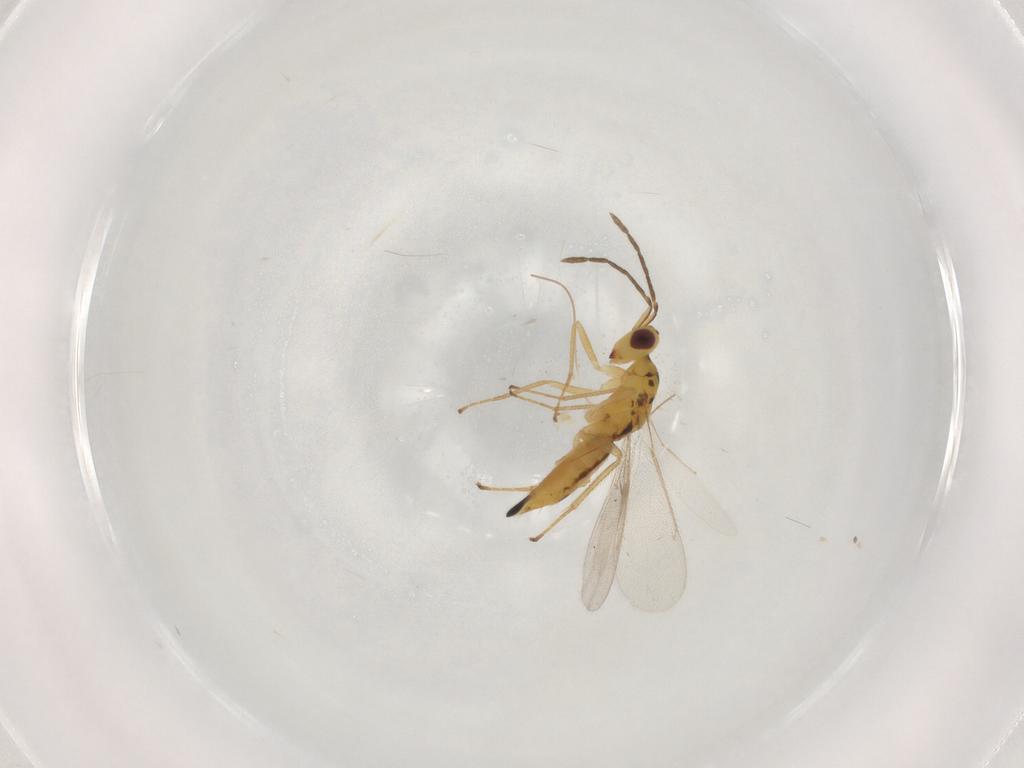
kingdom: Animalia
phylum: Arthropoda
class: Insecta
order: Hymenoptera
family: Eulophidae
